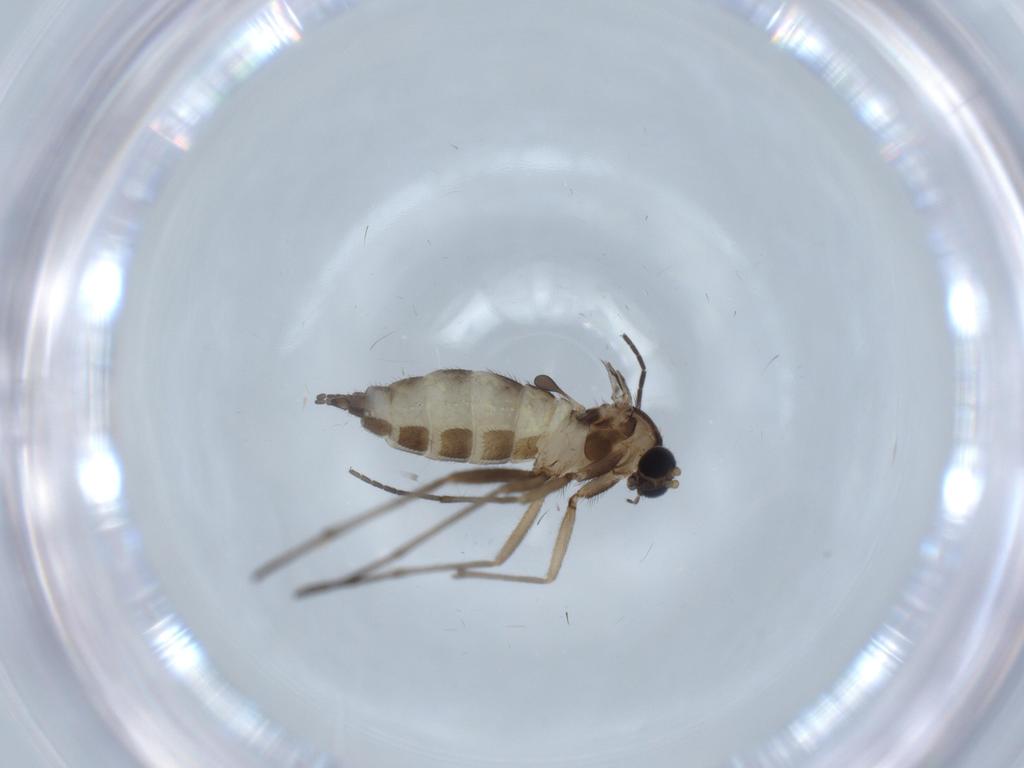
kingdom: Animalia
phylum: Arthropoda
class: Insecta
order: Diptera
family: Sciaridae
